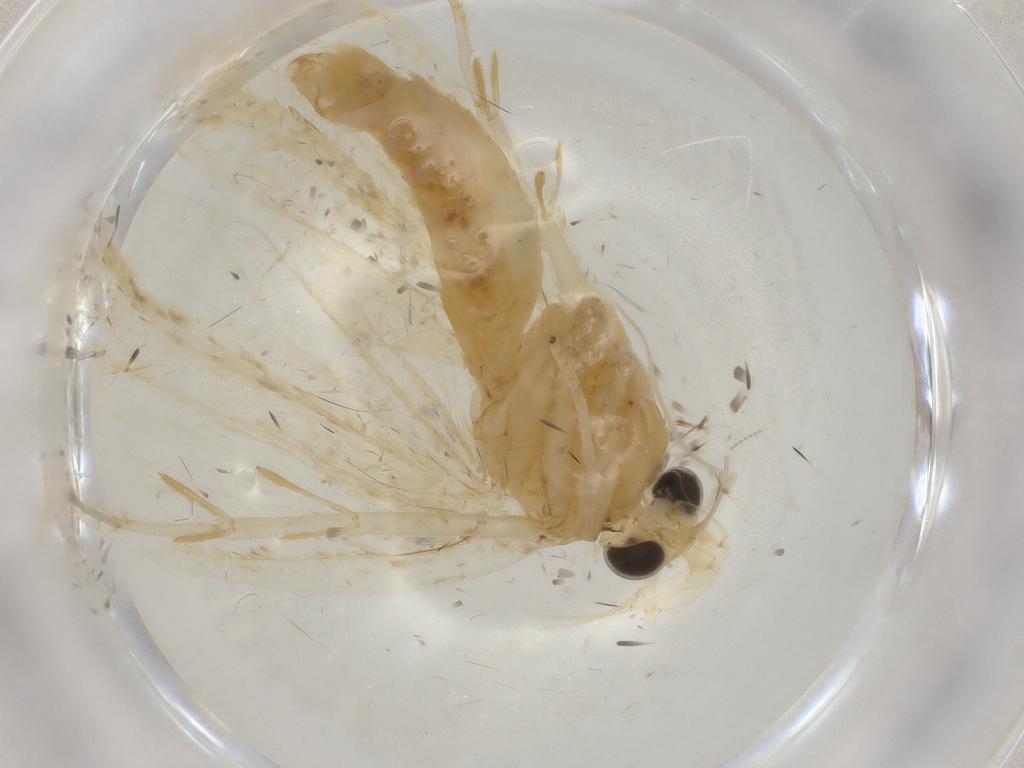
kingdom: Animalia
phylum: Arthropoda
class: Insecta
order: Lepidoptera
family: Lecithoceridae
